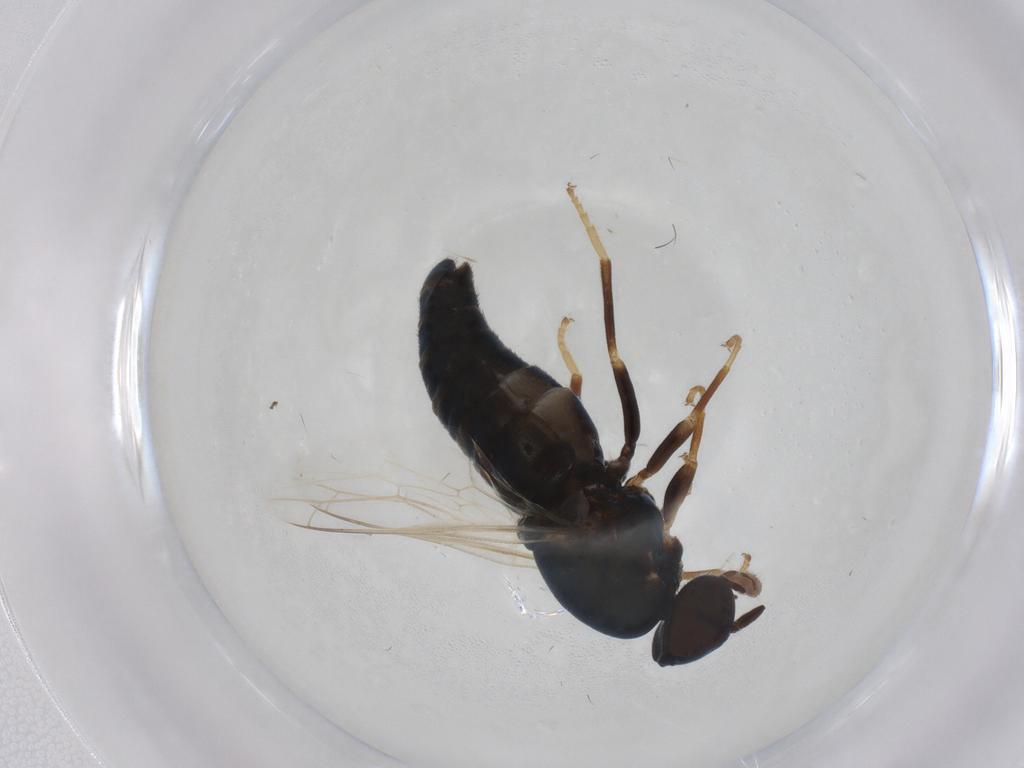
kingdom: Animalia
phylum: Arthropoda
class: Insecta
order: Diptera
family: Scenopinidae
